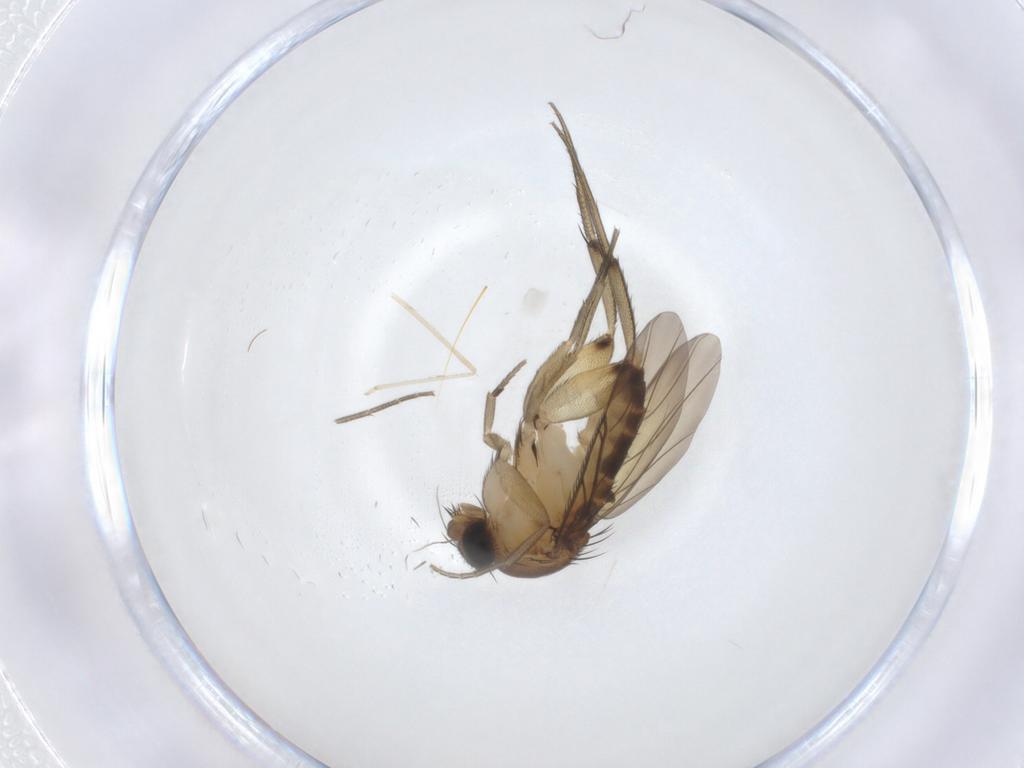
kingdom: Animalia
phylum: Arthropoda
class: Insecta
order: Diptera
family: Phoridae
